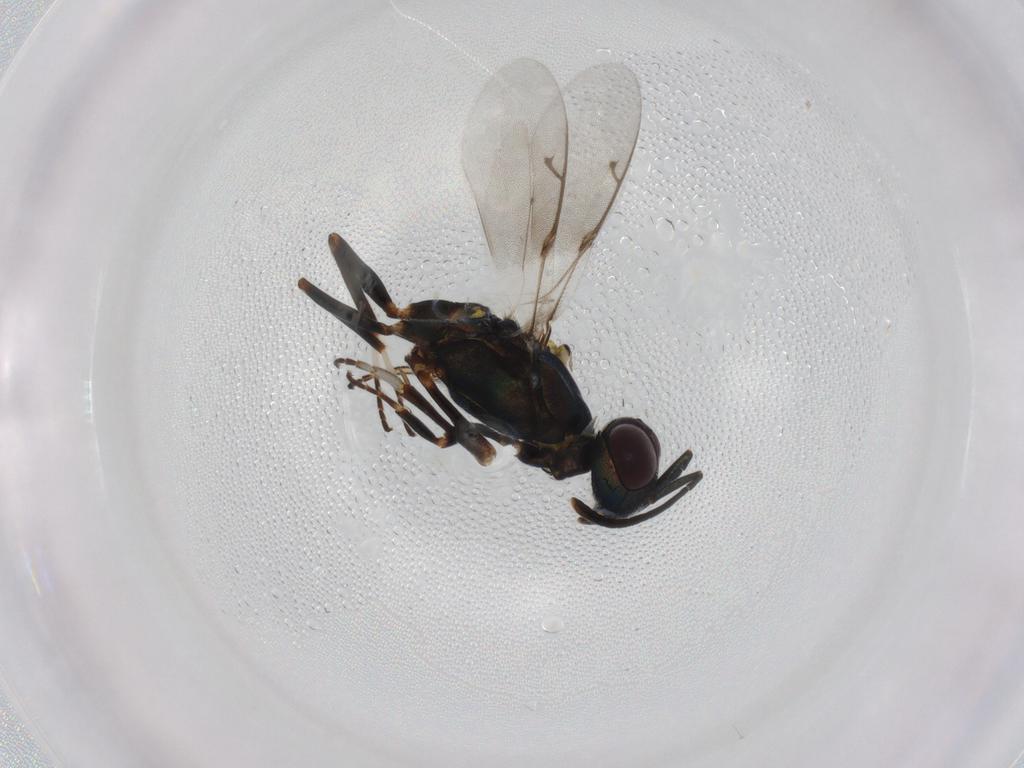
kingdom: Animalia
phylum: Arthropoda
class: Insecta
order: Hymenoptera
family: Trichogrammatidae
